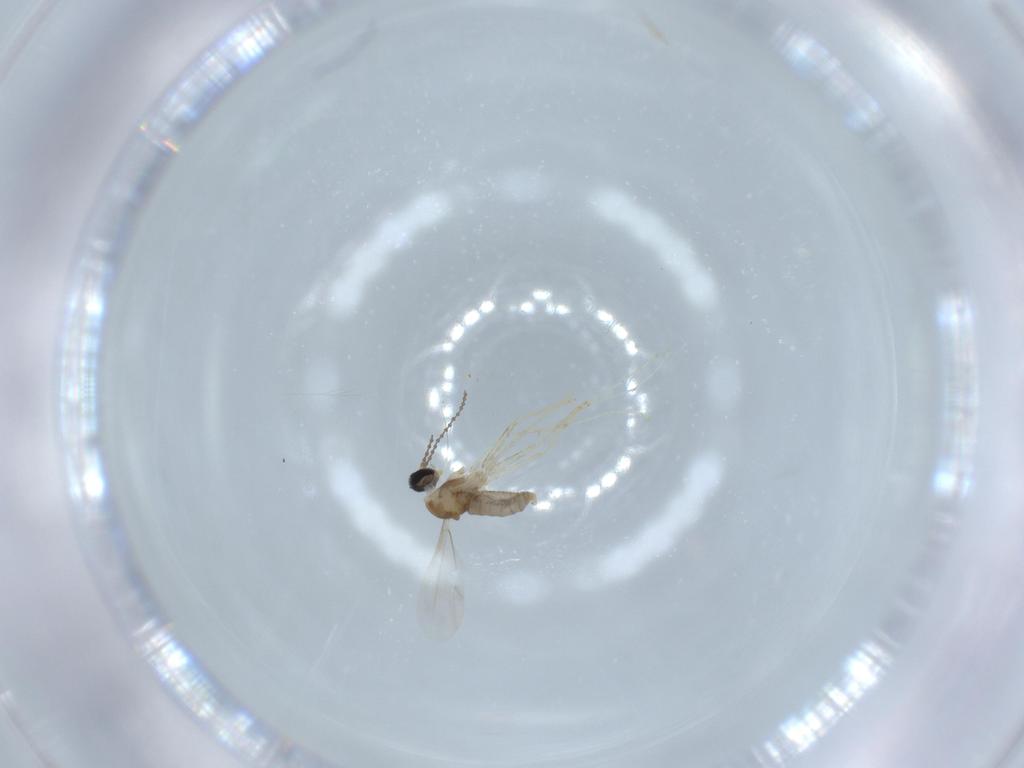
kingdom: Animalia
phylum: Arthropoda
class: Insecta
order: Diptera
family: Cecidomyiidae
